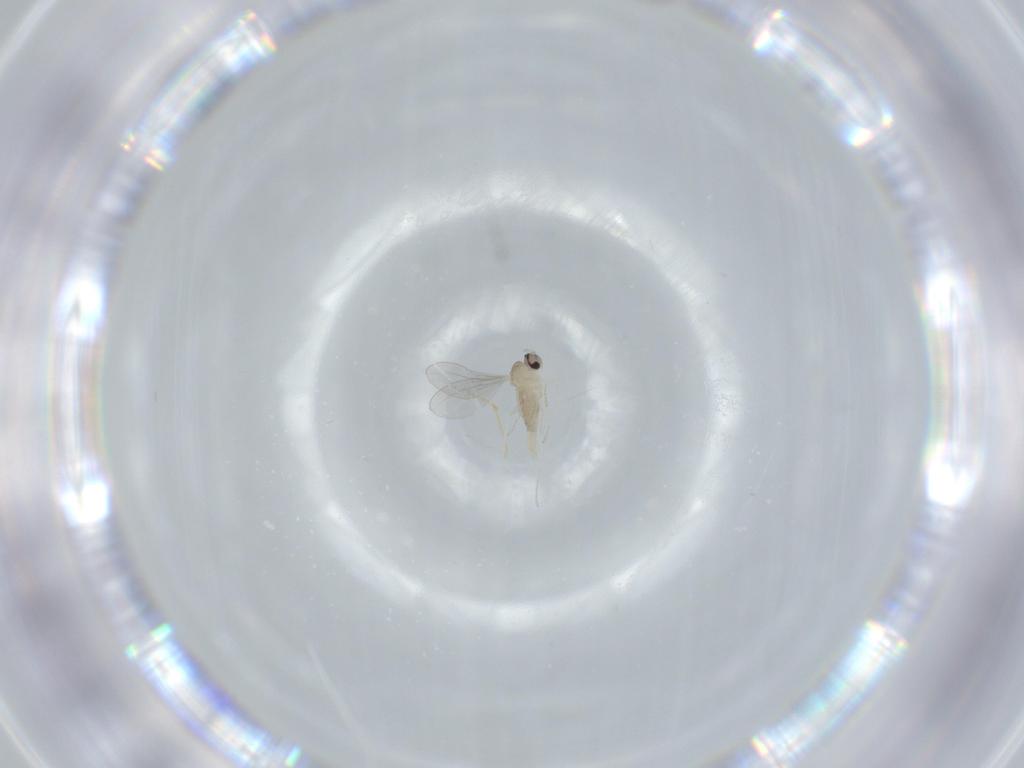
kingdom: Animalia
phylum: Arthropoda
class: Insecta
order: Diptera
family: Cecidomyiidae
